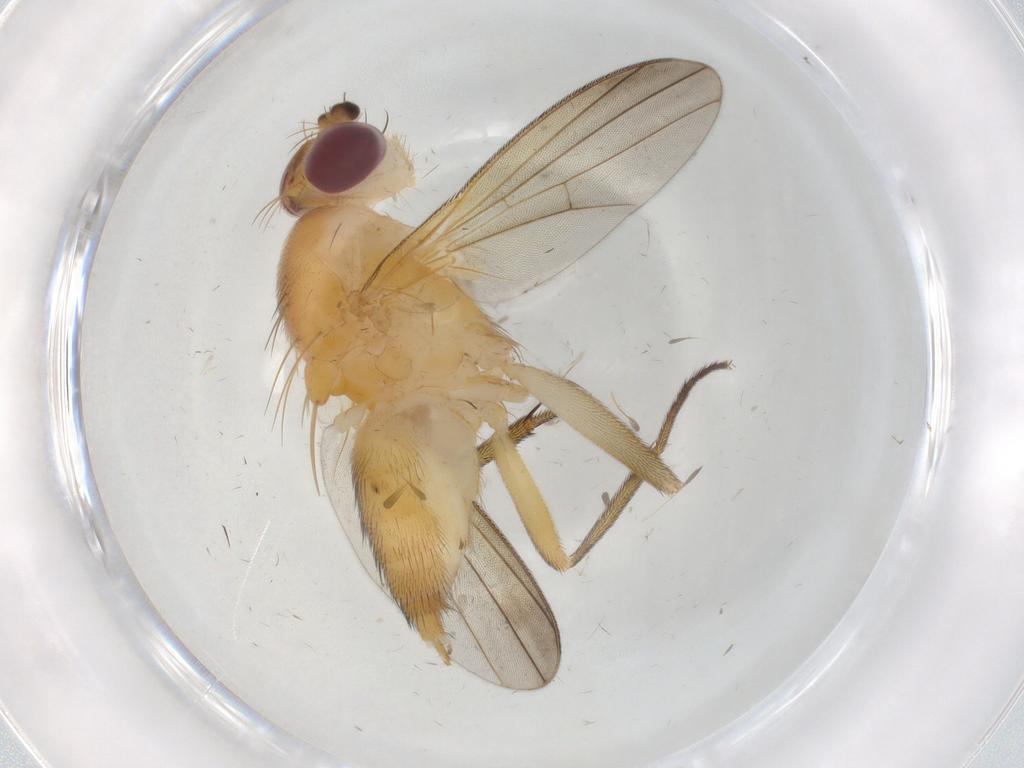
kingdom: Animalia
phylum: Arthropoda
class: Insecta
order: Diptera
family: Clusiidae
